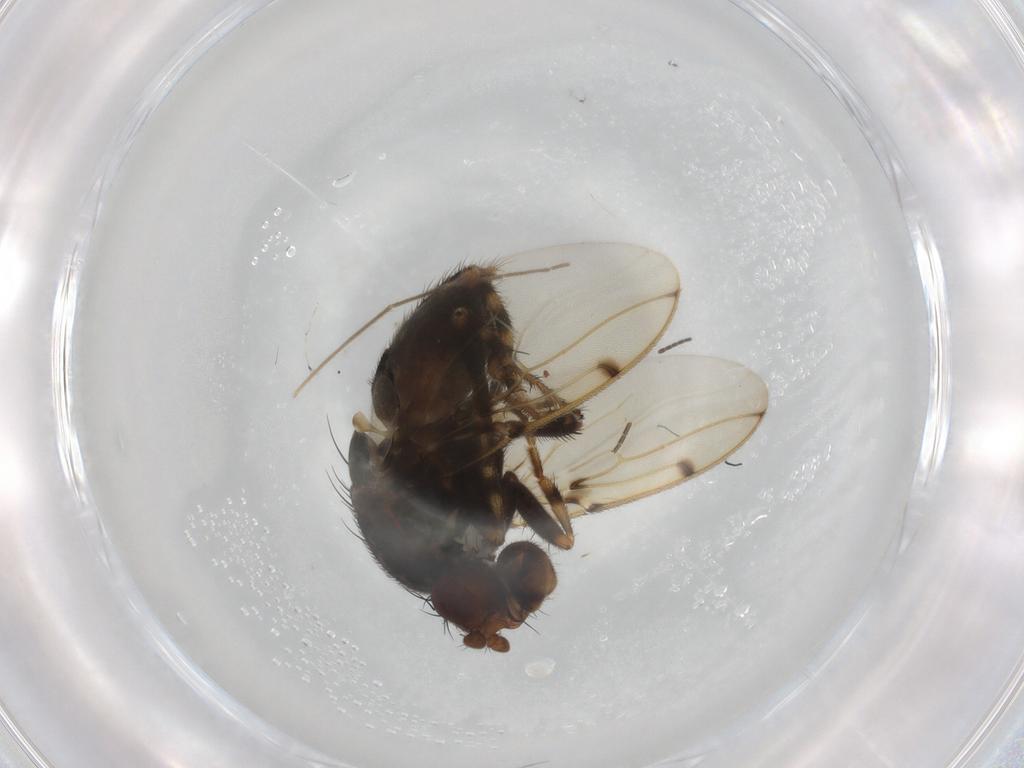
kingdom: Animalia
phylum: Arthropoda
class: Insecta
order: Diptera
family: Sphaeroceridae
